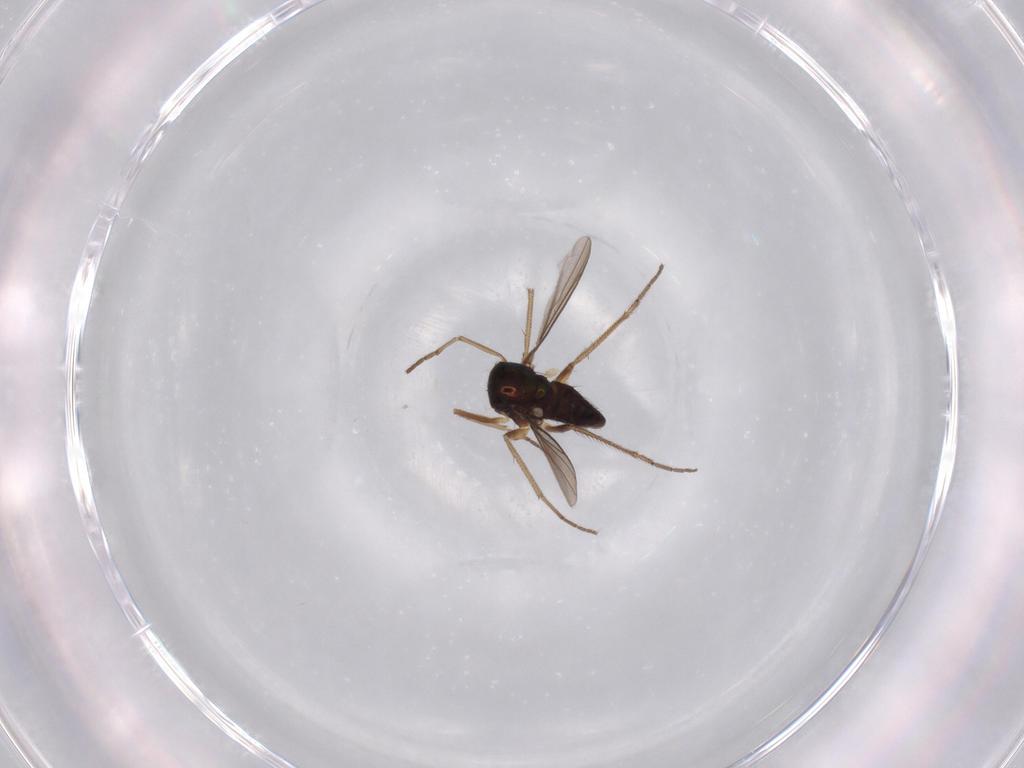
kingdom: Animalia
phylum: Arthropoda
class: Insecta
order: Diptera
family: Dolichopodidae
